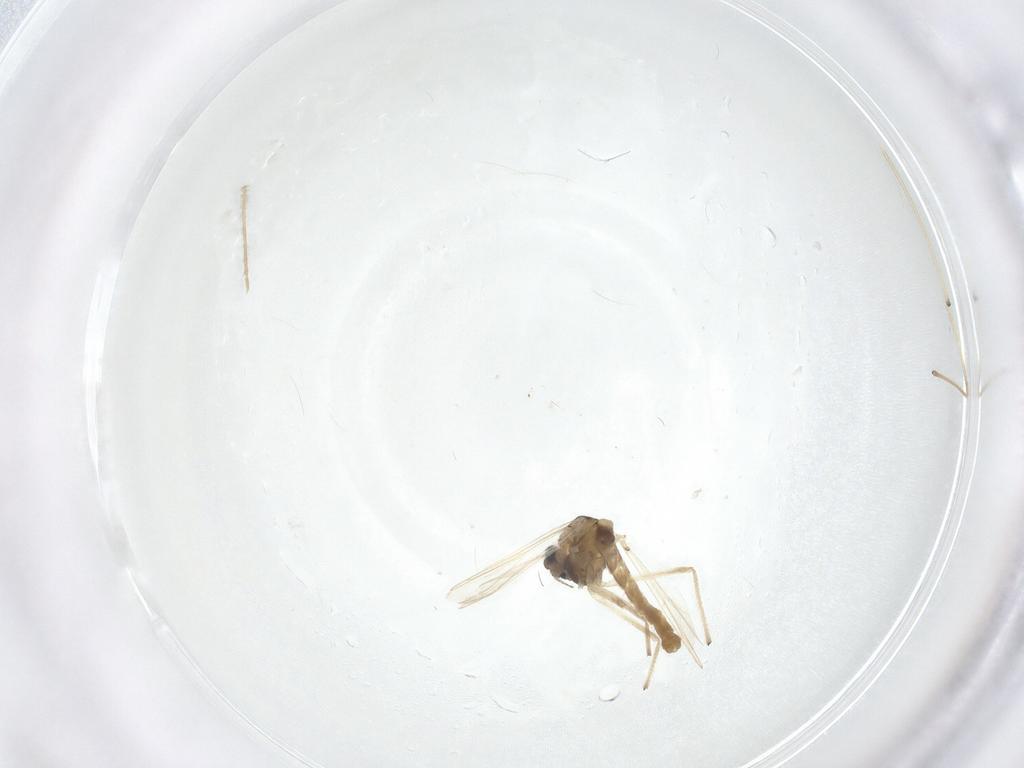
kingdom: Animalia
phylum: Arthropoda
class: Insecta
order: Diptera
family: Chironomidae
